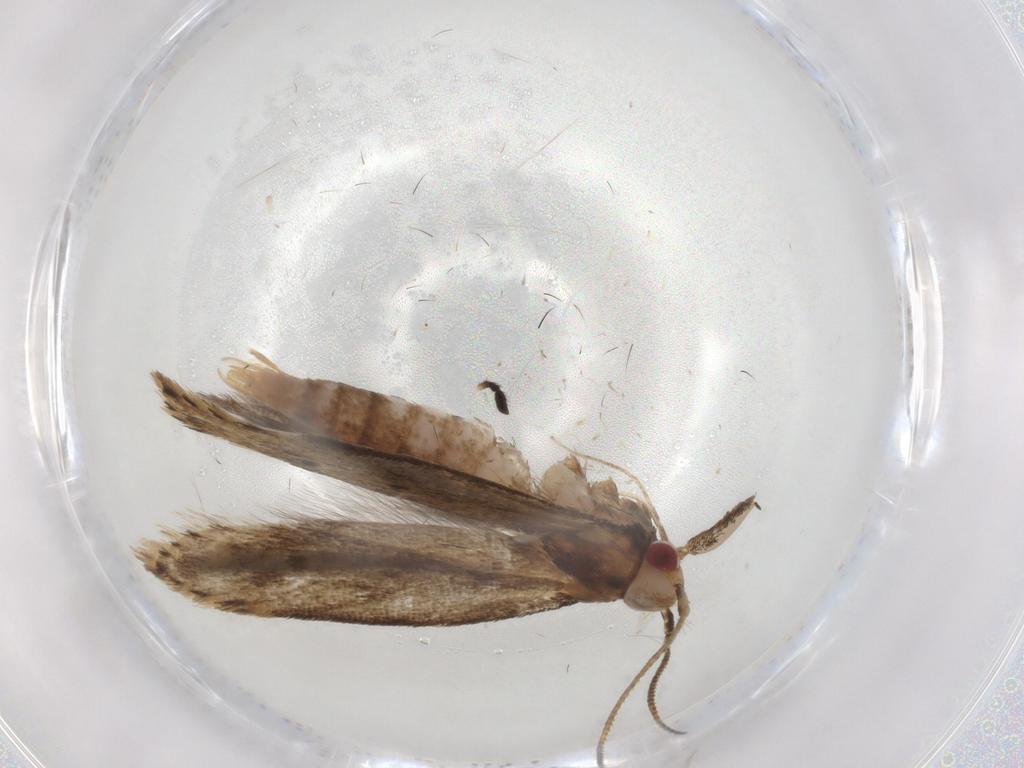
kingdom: Animalia
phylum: Arthropoda
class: Insecta
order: Lepidoptera
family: Gelechiidae
